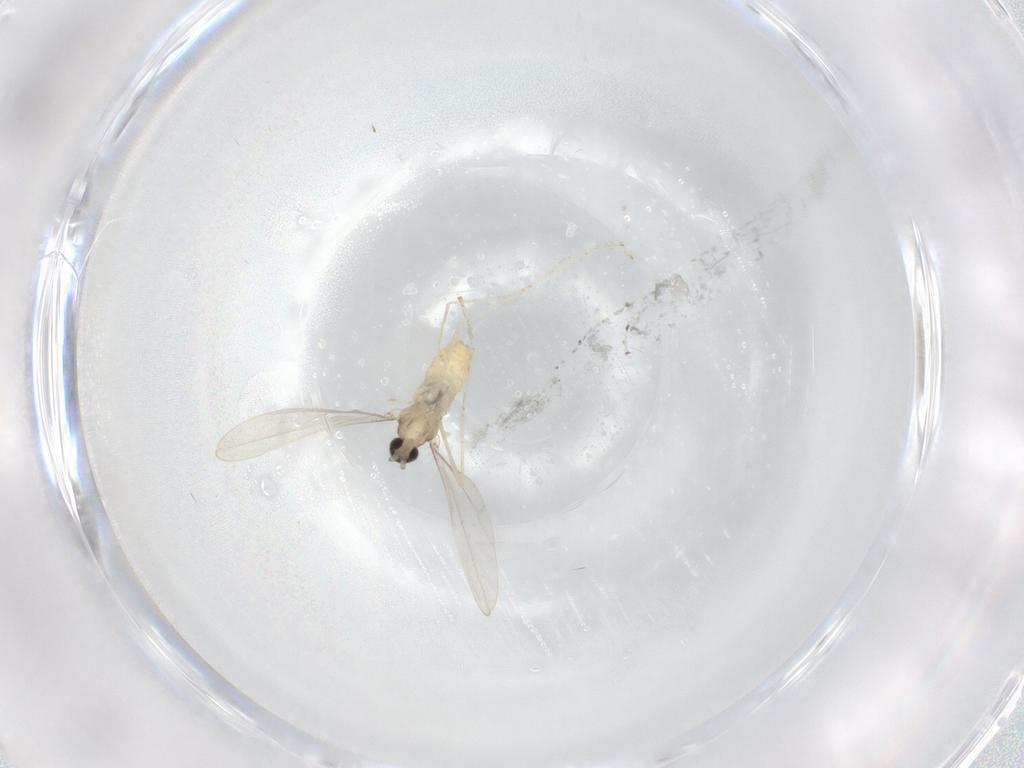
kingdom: Animalia
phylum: Arthropoda
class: Insecta
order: Diptera
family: Cecidomyiidae
